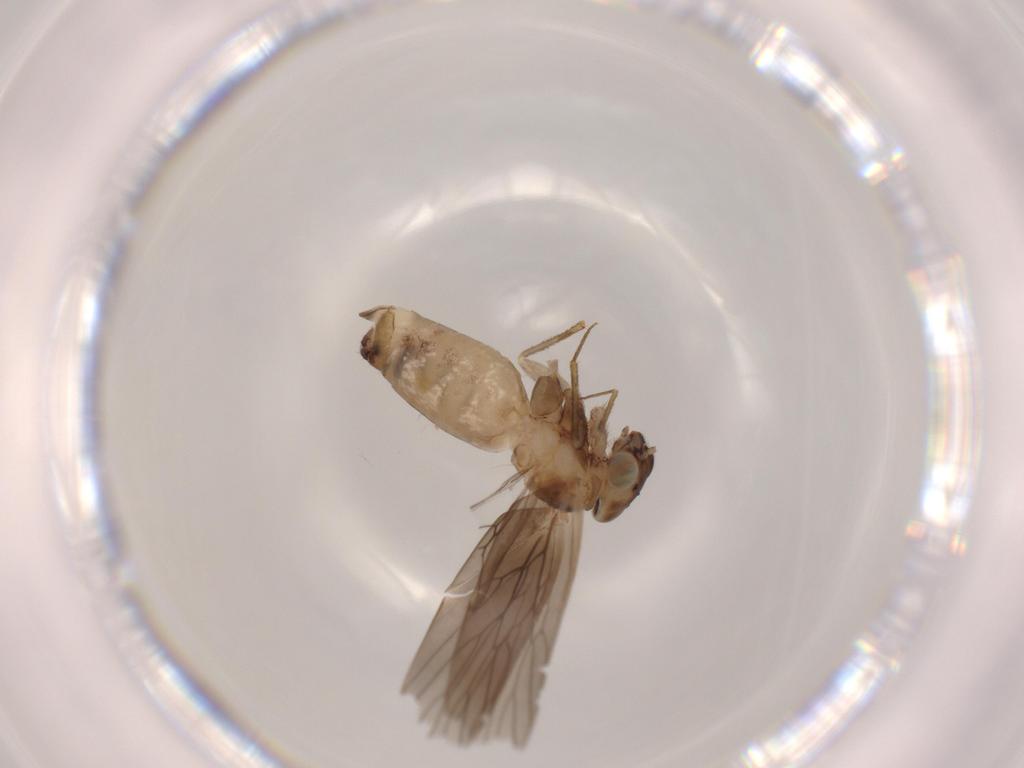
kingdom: Animalia
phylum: Arthropoda
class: Insecta
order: Psocodea
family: Lepidopsocidae
